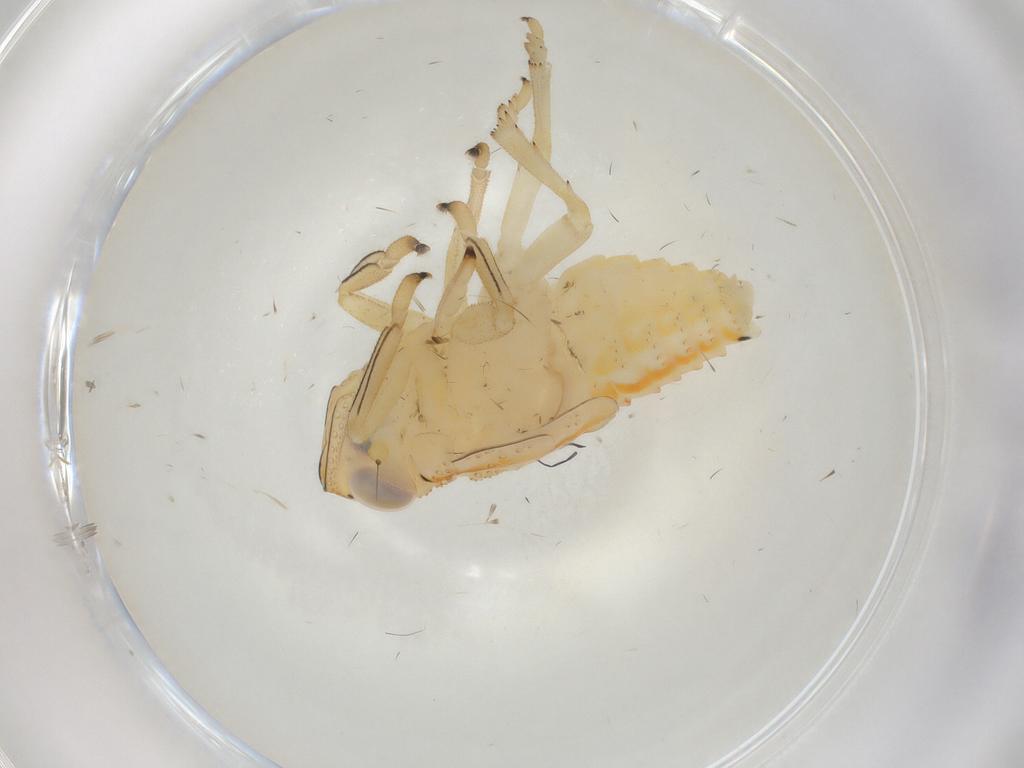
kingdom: Animalia
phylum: Arthropoda
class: Insecta
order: Hemiptera
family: Issidae
